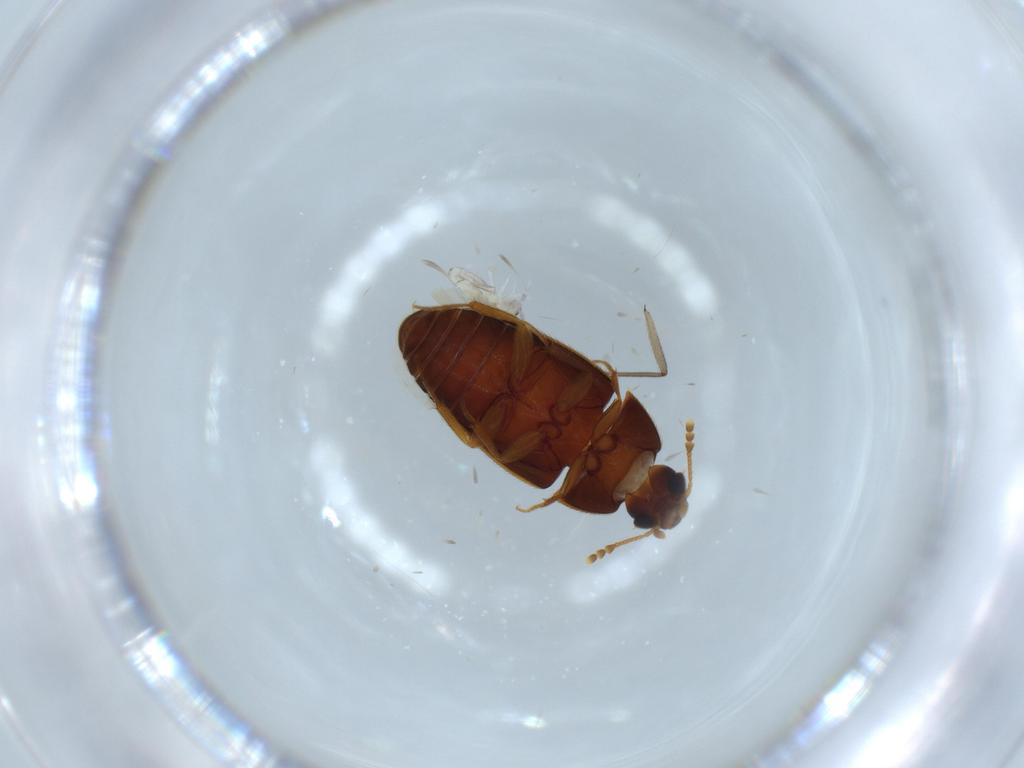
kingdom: Animalia
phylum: Arthropoda
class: Collembola
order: Entomobryomorpha
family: Entomobryidae
